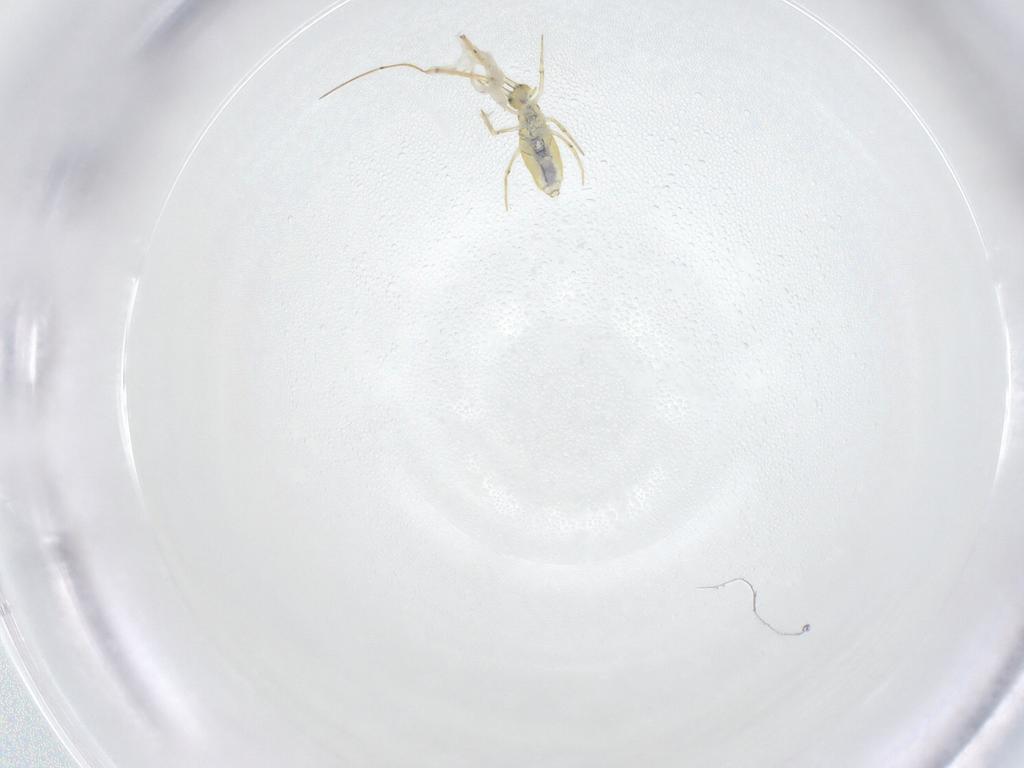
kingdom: Animalia
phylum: Arthropoda
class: Collembola
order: Entomobryomorpha
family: Paronellidae
